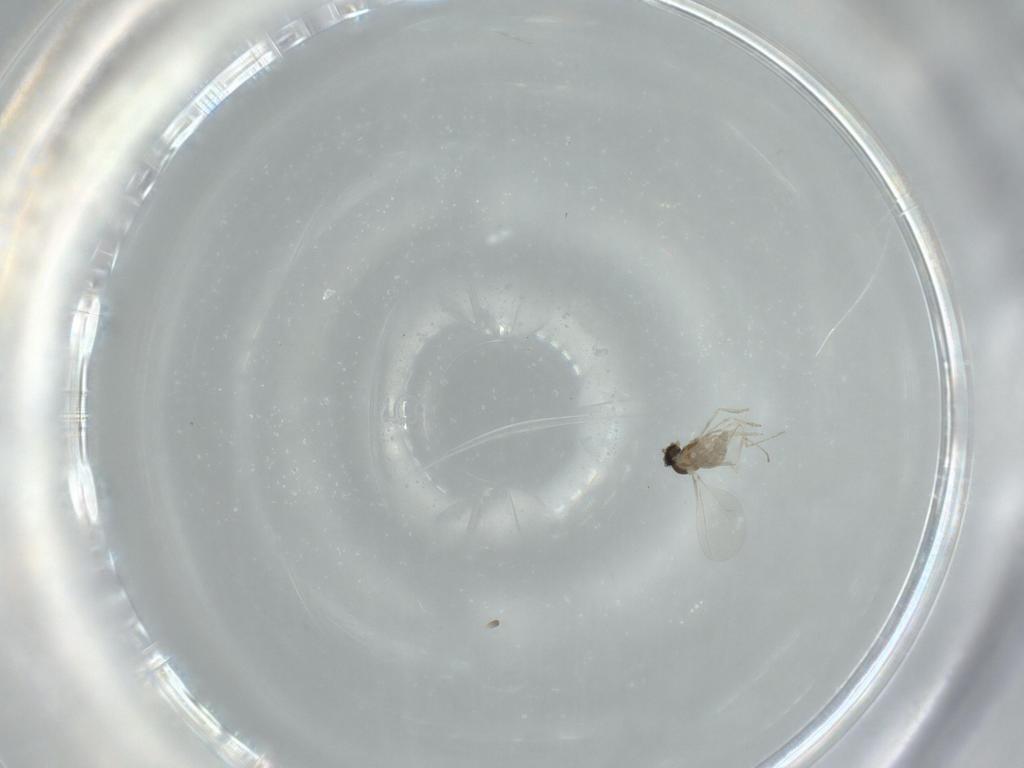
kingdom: Animalia
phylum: Arthropoda
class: Insecta
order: Diptera
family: Cecidomyiidae
